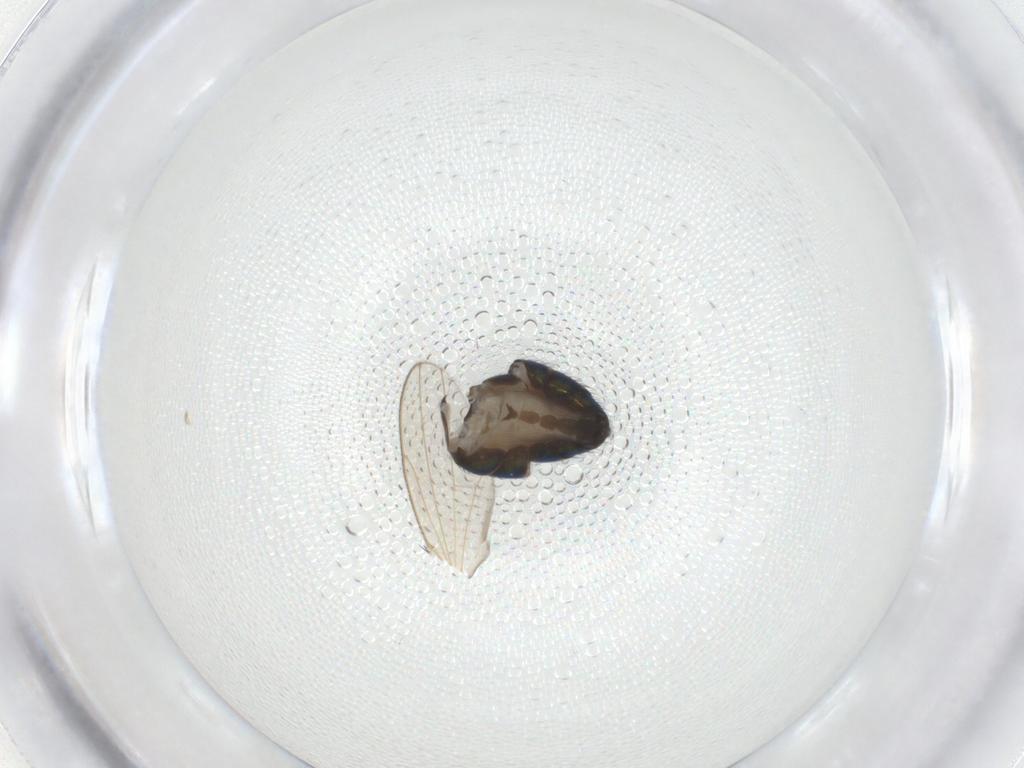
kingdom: Animalia
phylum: Arthropoda
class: Insecta
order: Diptera
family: Ephydridae
